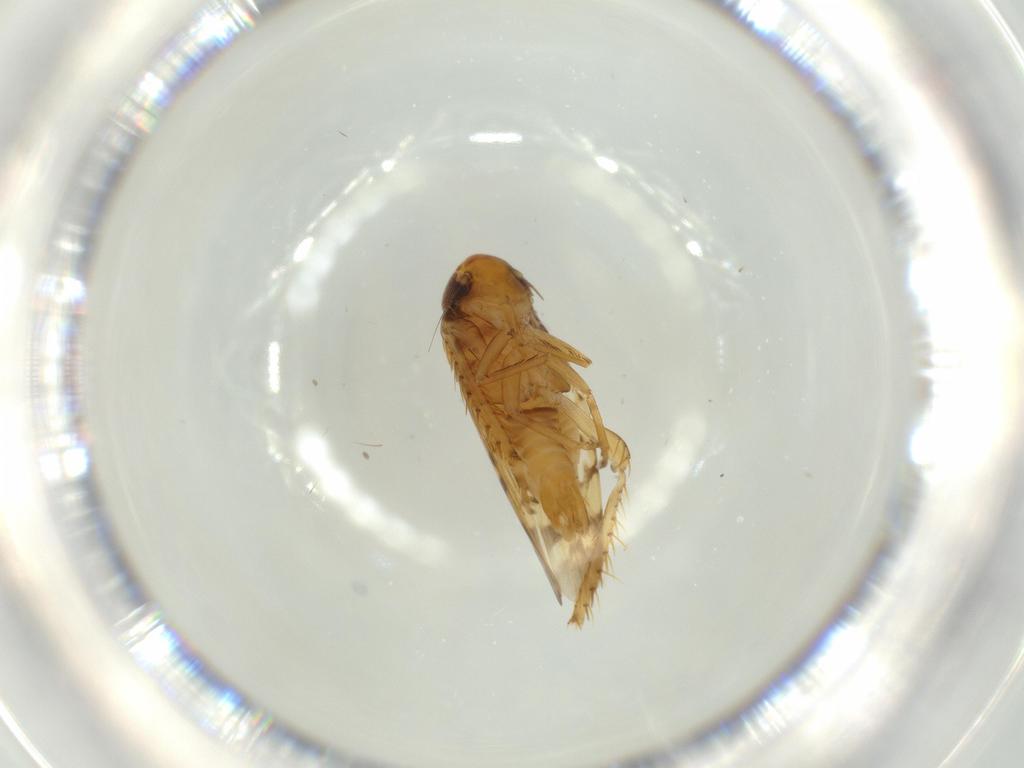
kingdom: Animalia
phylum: Arthropoda
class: Insecta
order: Hemiptera
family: Cicadellidae
